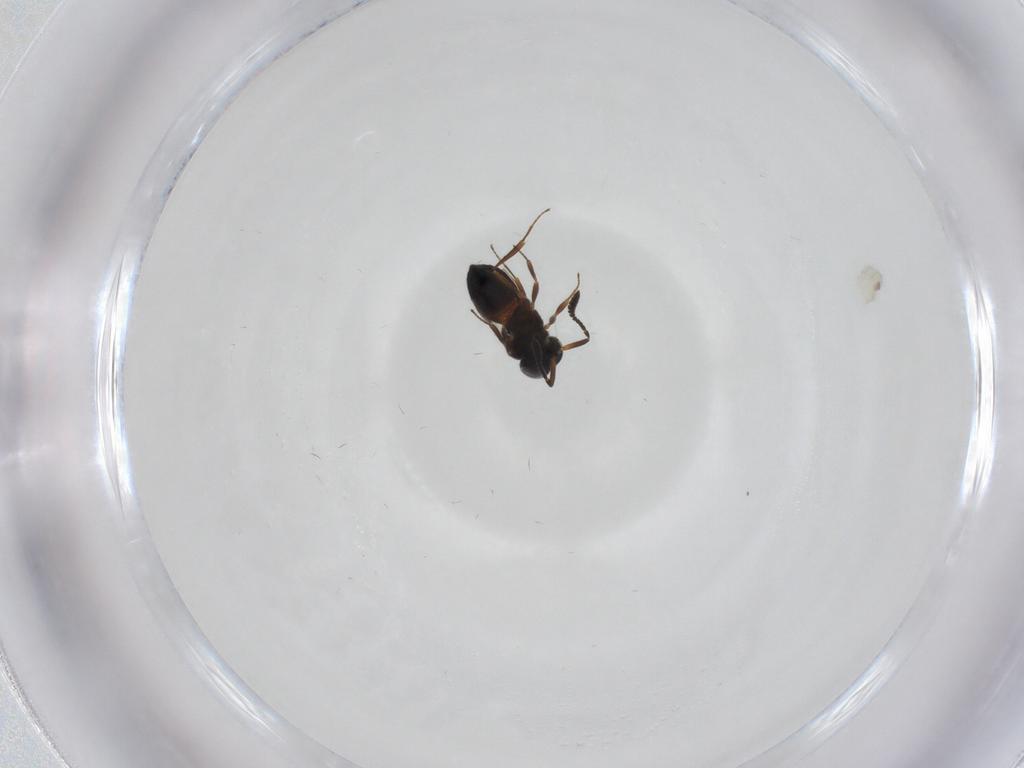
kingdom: Animalia
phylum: Arthropoda
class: Insecta
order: Hymenoptera
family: Scelionidae
